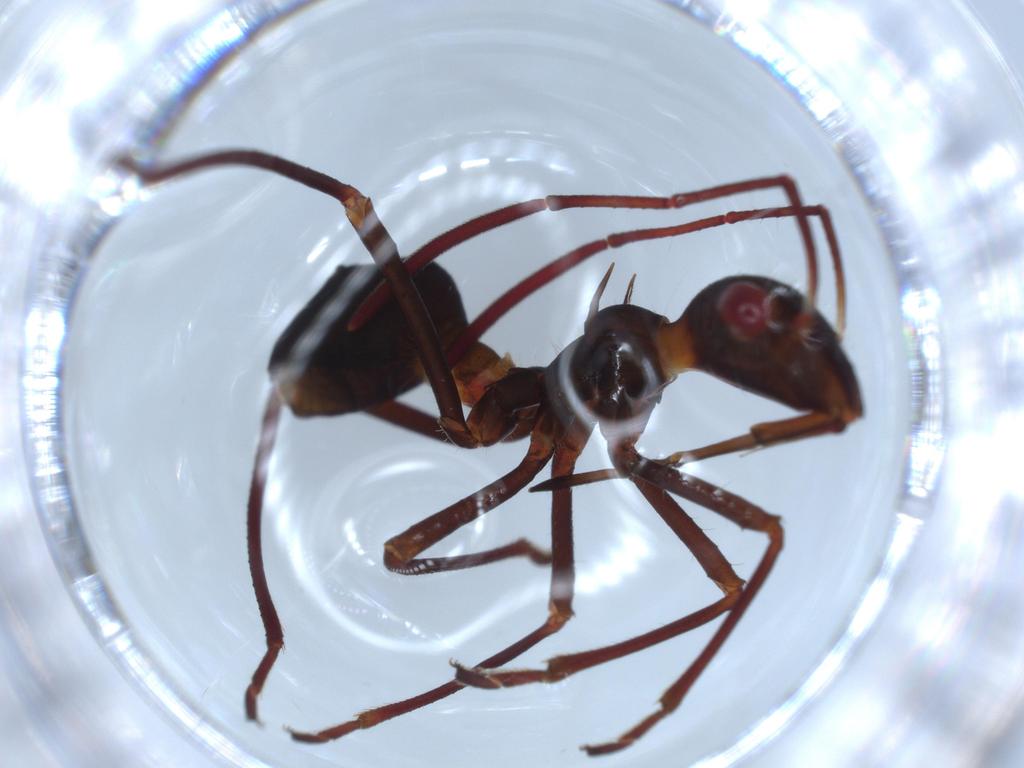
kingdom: Animalia
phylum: Arthropoda
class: Insecta
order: Hemiptera
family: Alydidae
